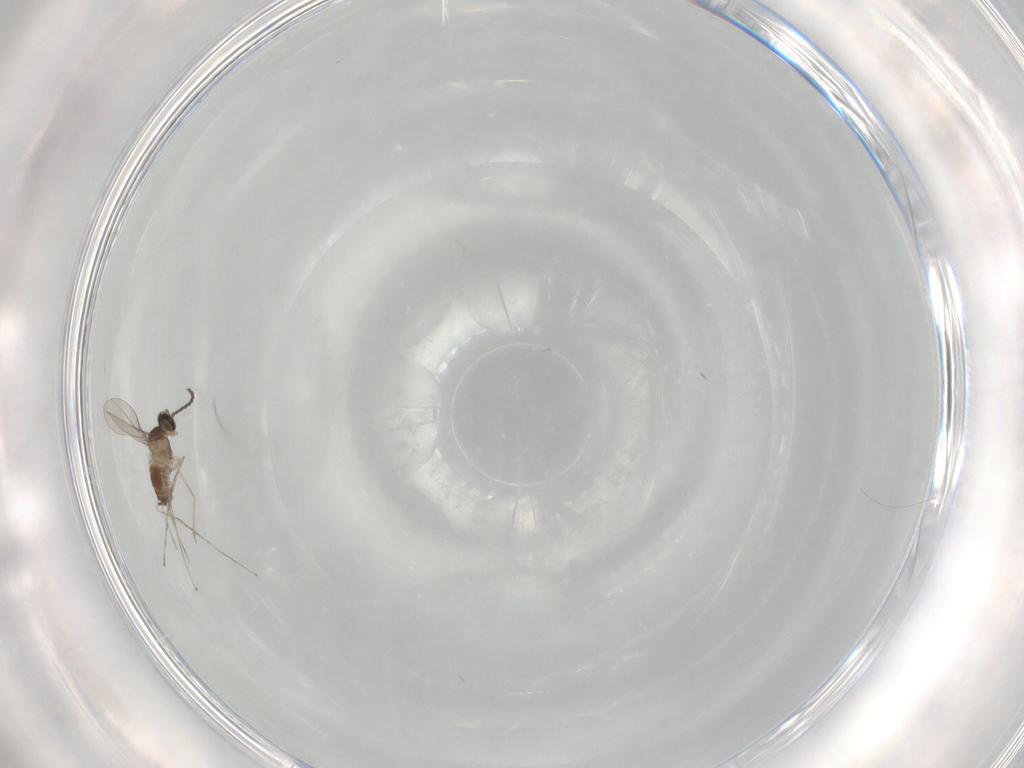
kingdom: Animalia
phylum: Arthropoda
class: Insecta
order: Diptera
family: Cecidomyiidae
